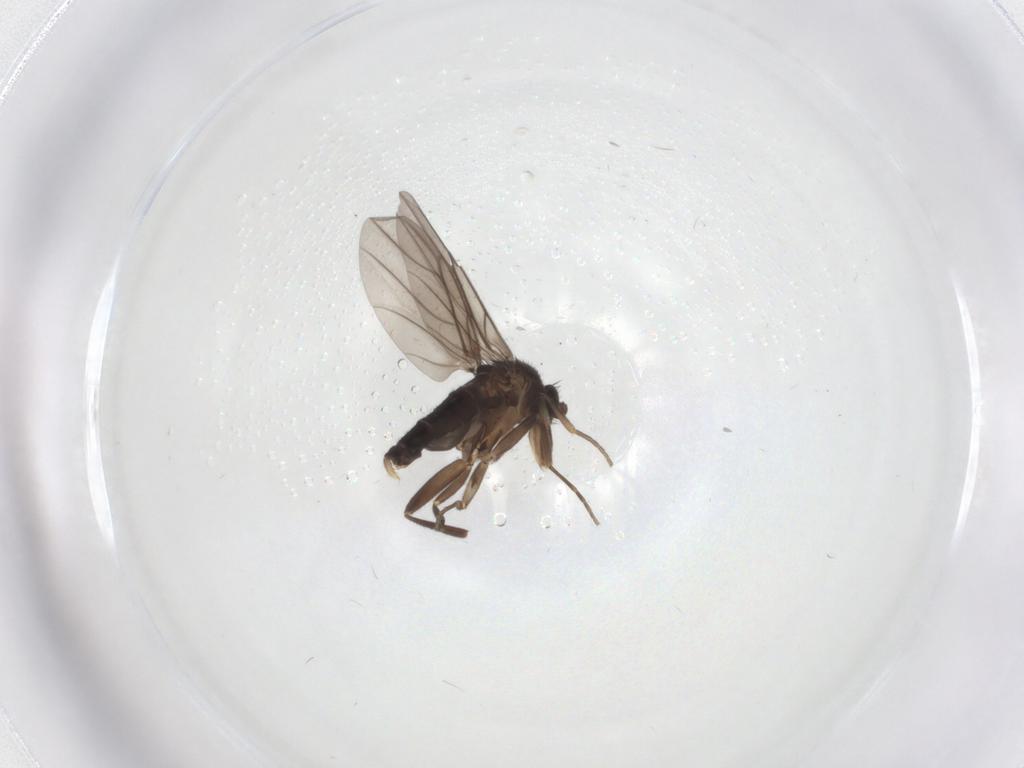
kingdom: Animalia
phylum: Arthropoda
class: Insecta
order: Diptera
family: Phoridae
